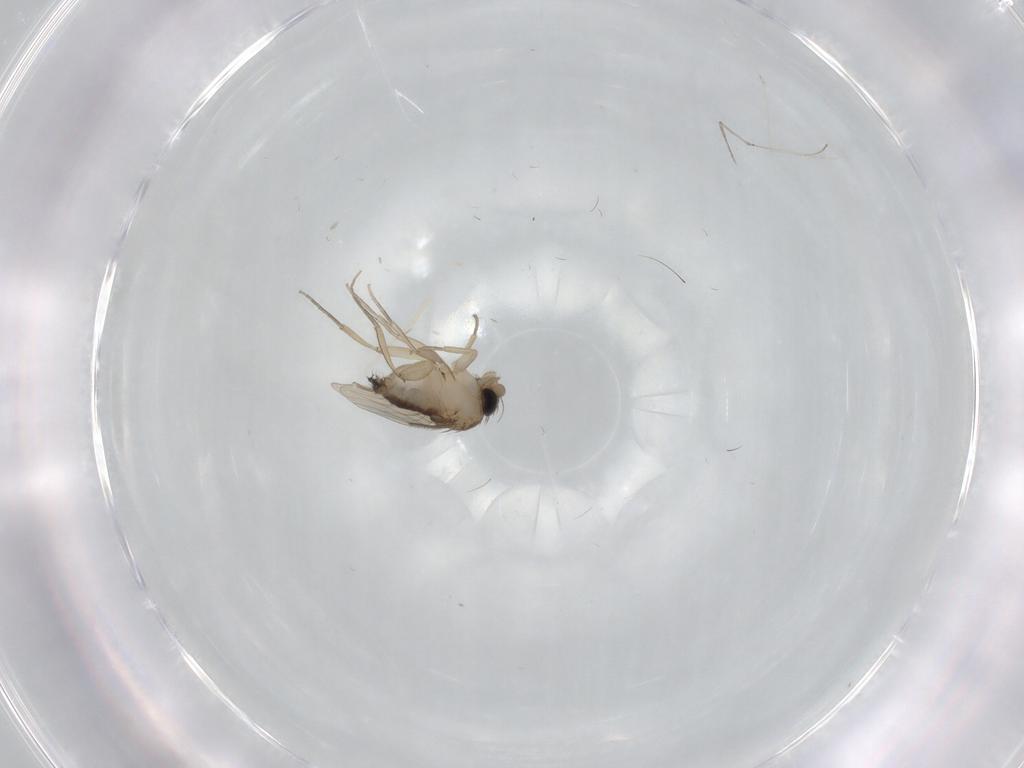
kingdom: Animalia
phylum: Arthropoda
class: Insecta
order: Diptera
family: Phoridae
